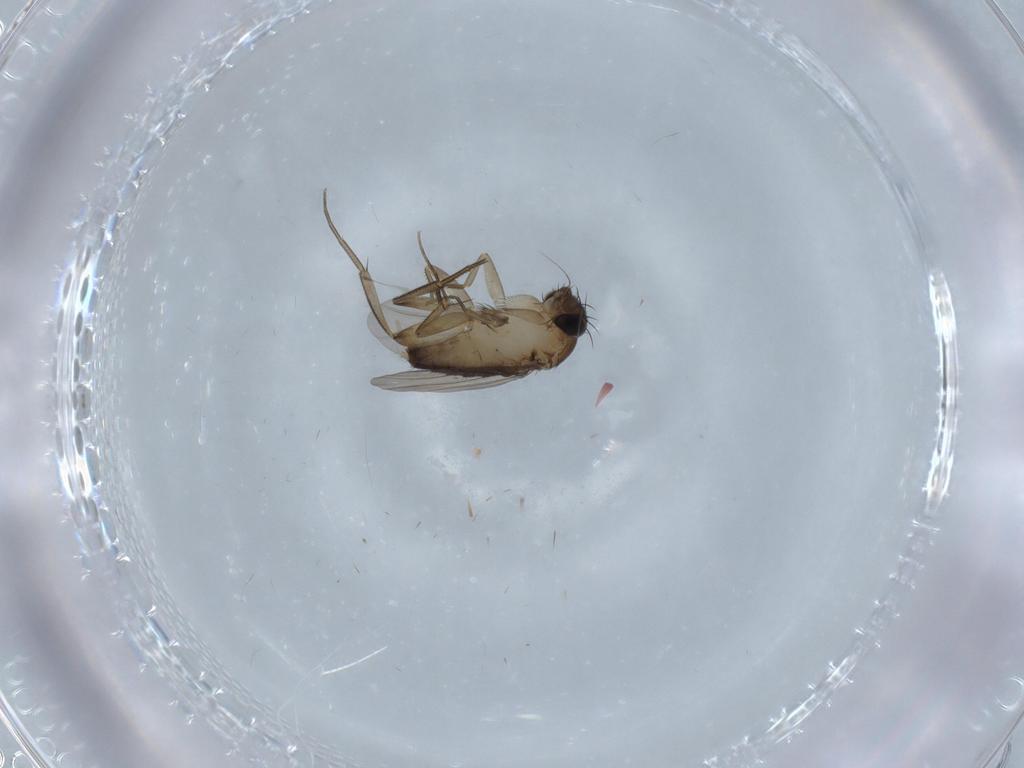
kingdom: Animalia
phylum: Arthropoda
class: Insecta
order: Diptera
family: Phoridae
